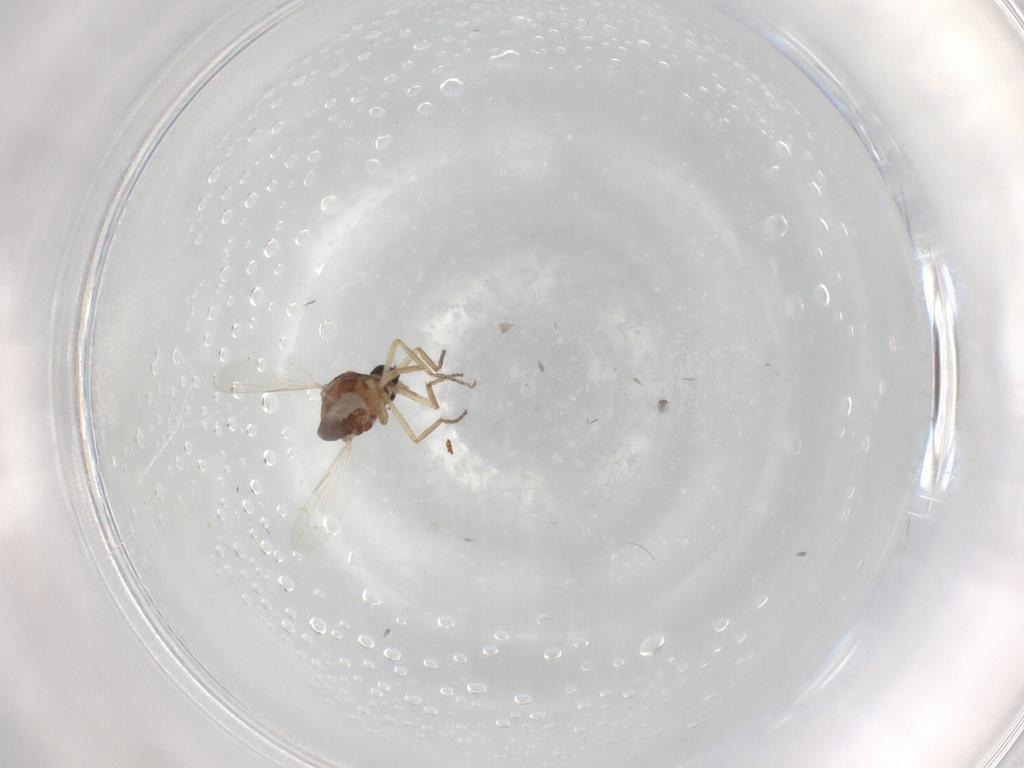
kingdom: Animalia
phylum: Arthropoda
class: Insecta
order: Diptera
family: Ceratopogonidae
